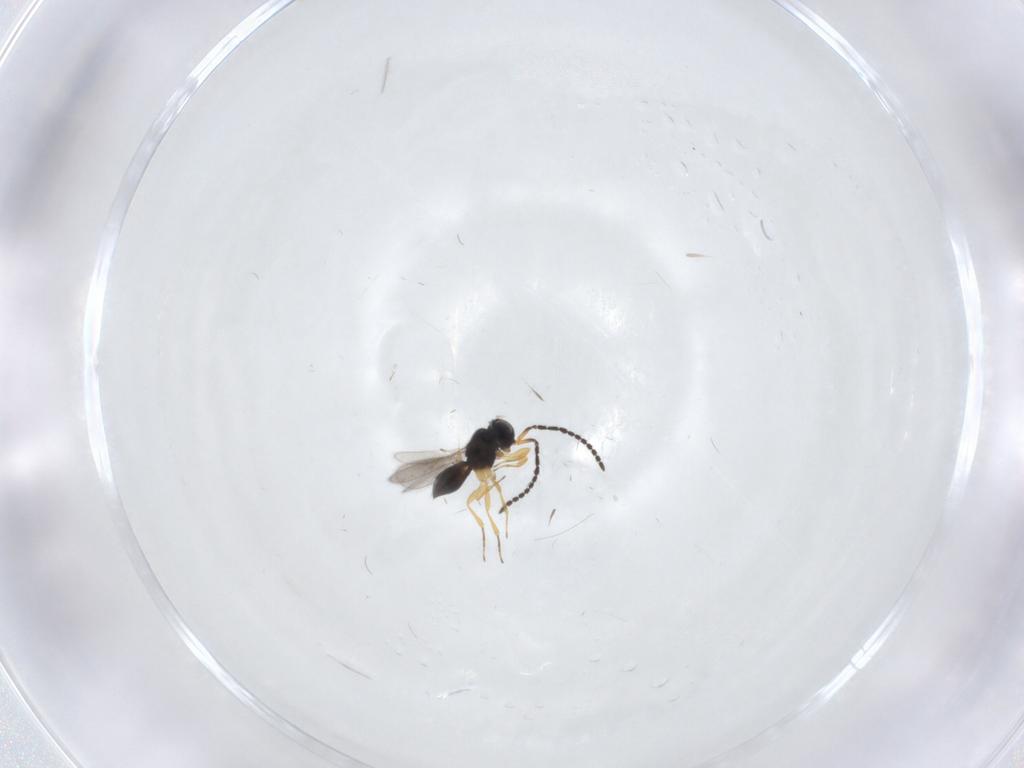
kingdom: Animalia
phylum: Arthropoda
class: Insecta
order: Hymenoptera
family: Scelionidae
